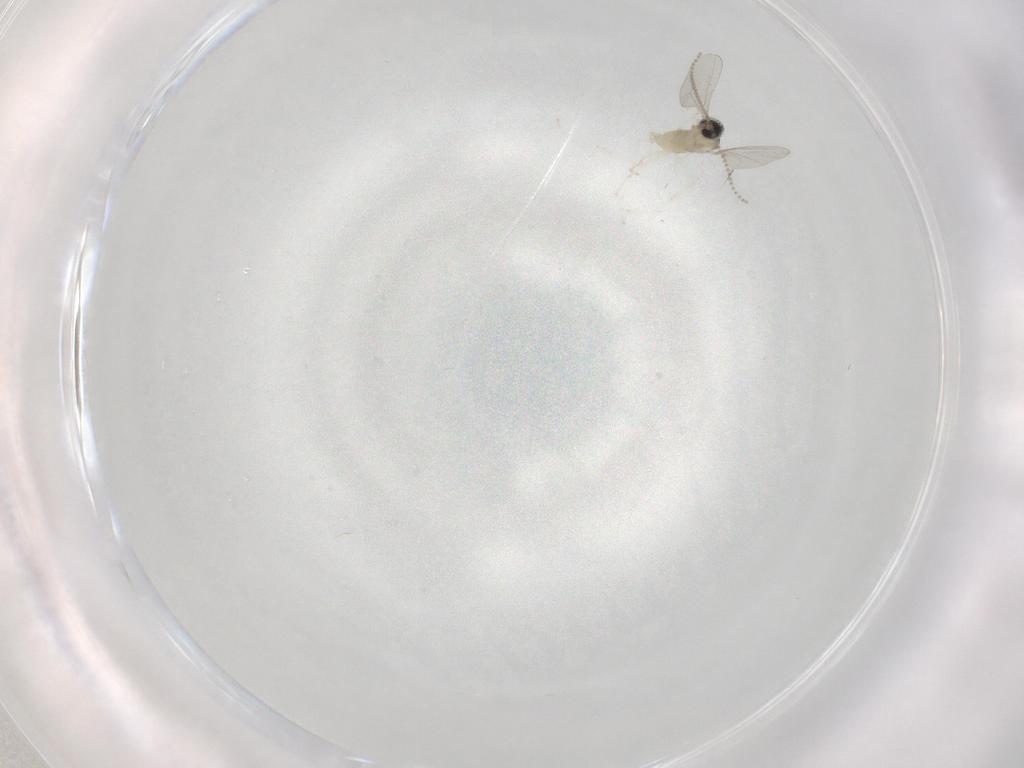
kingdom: Animalia
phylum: Arthropoda
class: Insecta
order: Diptera
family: Cecidomyiidae
